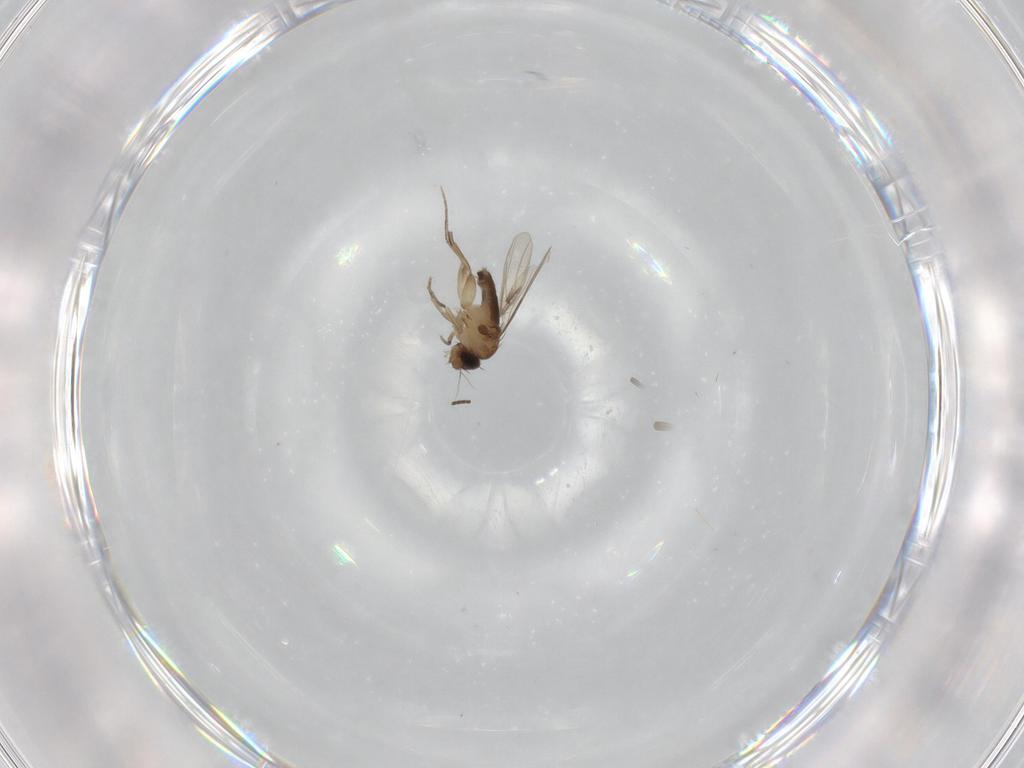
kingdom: Animalia
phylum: Arthropoda
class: Insecta
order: Diptera
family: Phoridae
